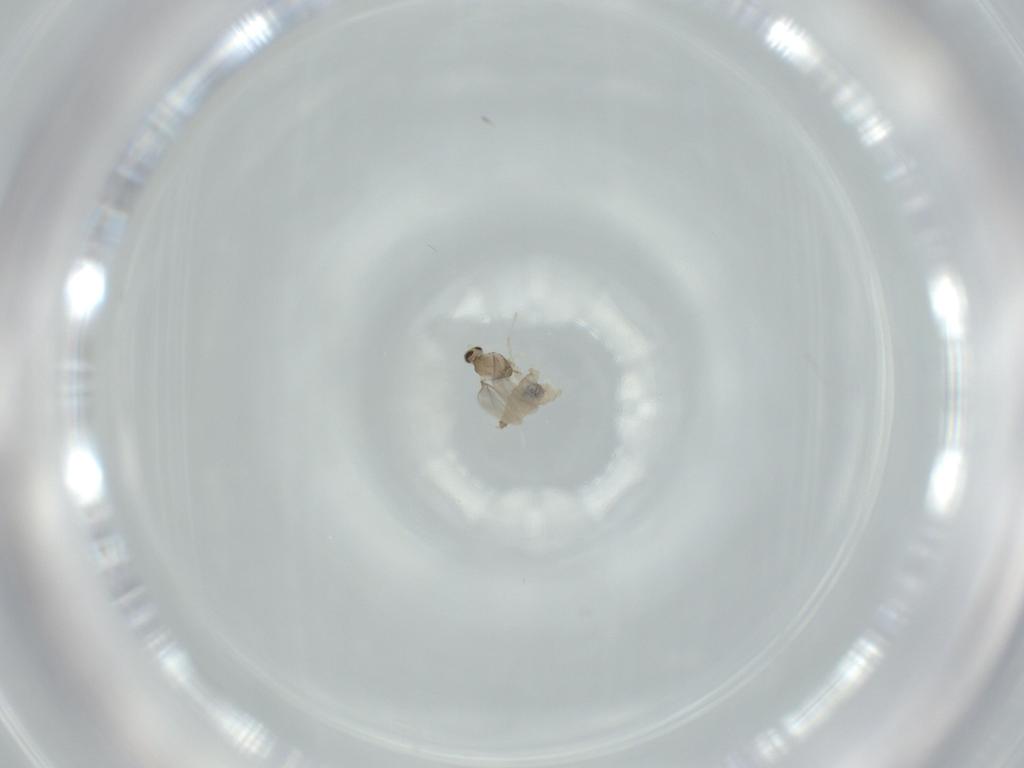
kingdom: Animalia
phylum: Arthropoda
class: Insecta
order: Diptera
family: Cecidomyiidae
